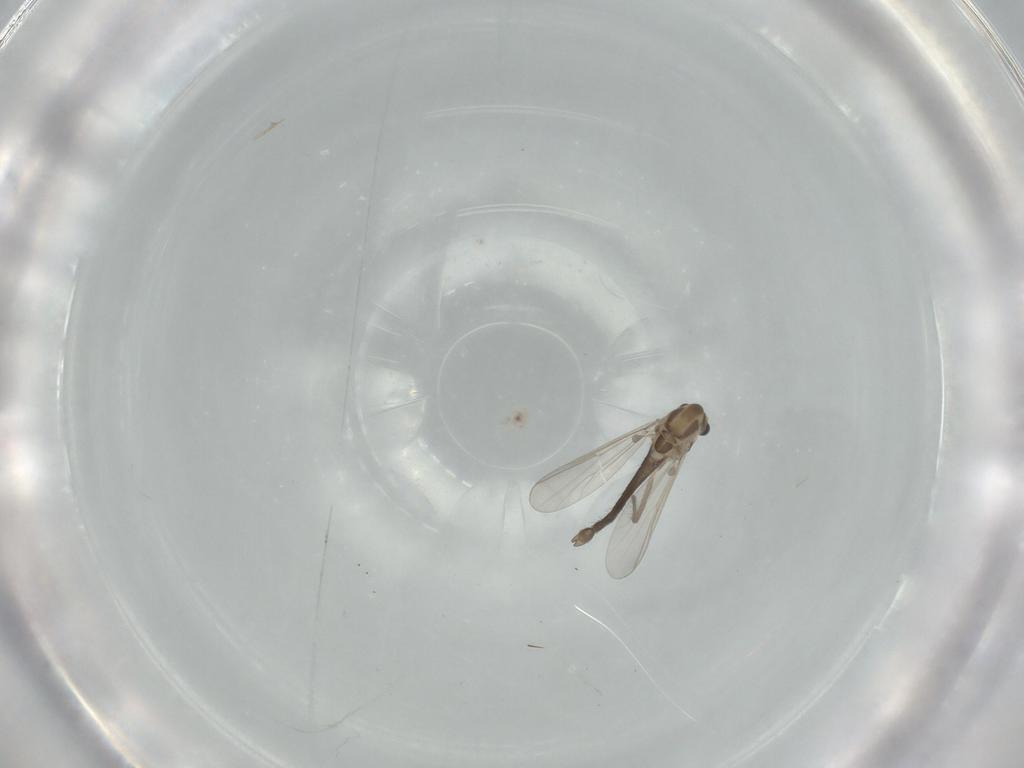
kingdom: Animalia
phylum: Arthropoda
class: Insecta
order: Diptera
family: Chironomidae
